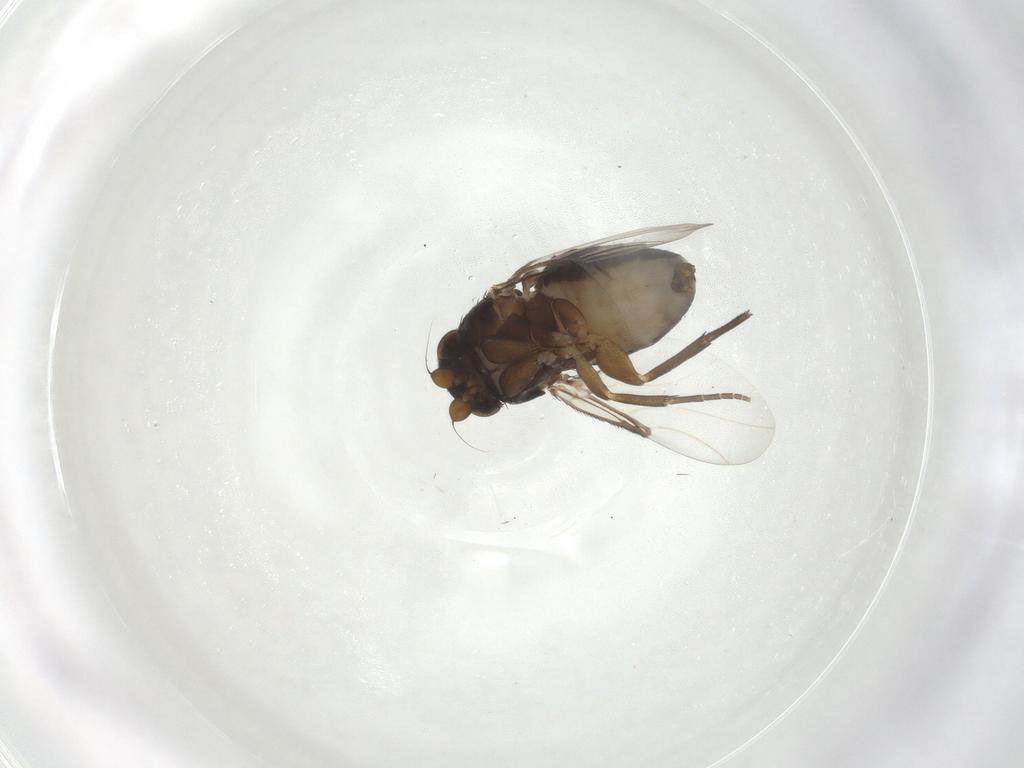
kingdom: Animalia
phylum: Arthropoda
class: Insecta
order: Diptera
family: Phoridae
